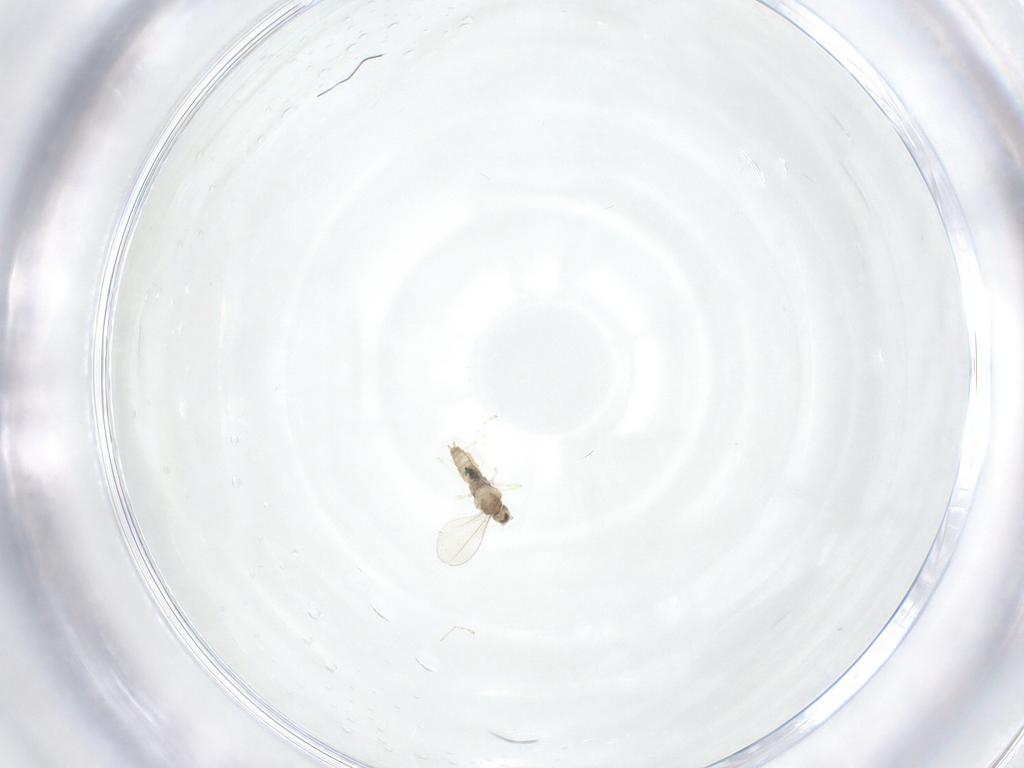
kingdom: Animalia
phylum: Arthropoda
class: Insecta
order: Diptera
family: Cecidomyiidae
